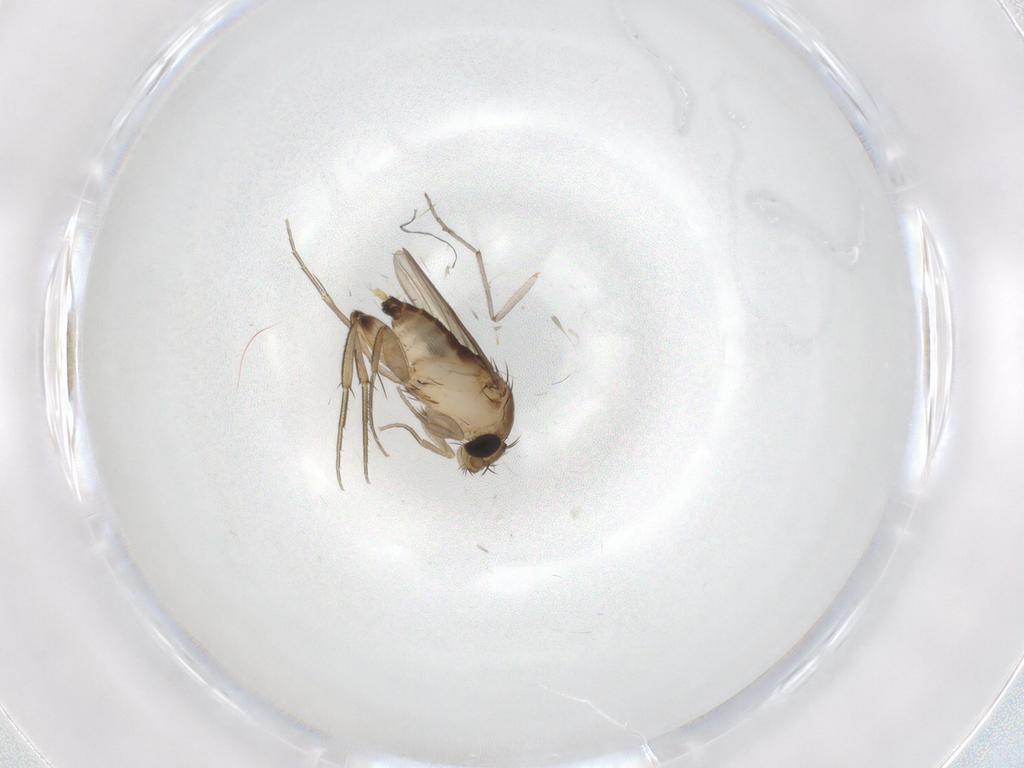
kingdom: Animalia
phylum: Arthropoda
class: Insecta
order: Diptera
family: Chironomidae
